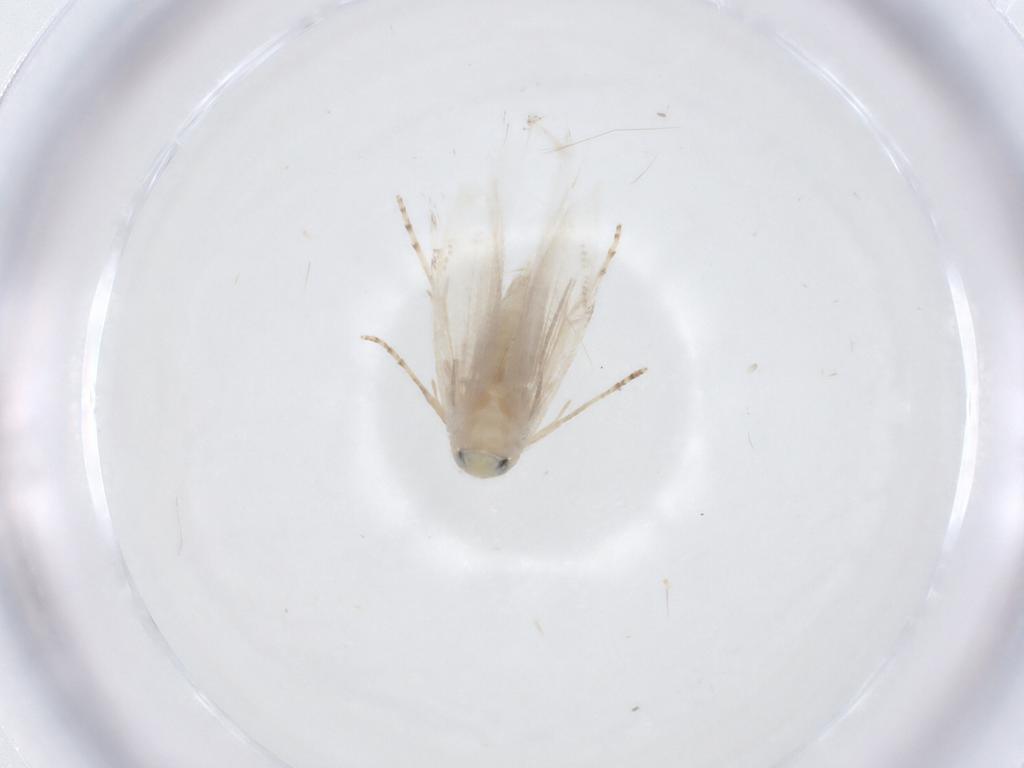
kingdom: Animalia
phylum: Arthropoda
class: Insecta
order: Lepidoptera
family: Lyonetiidae
